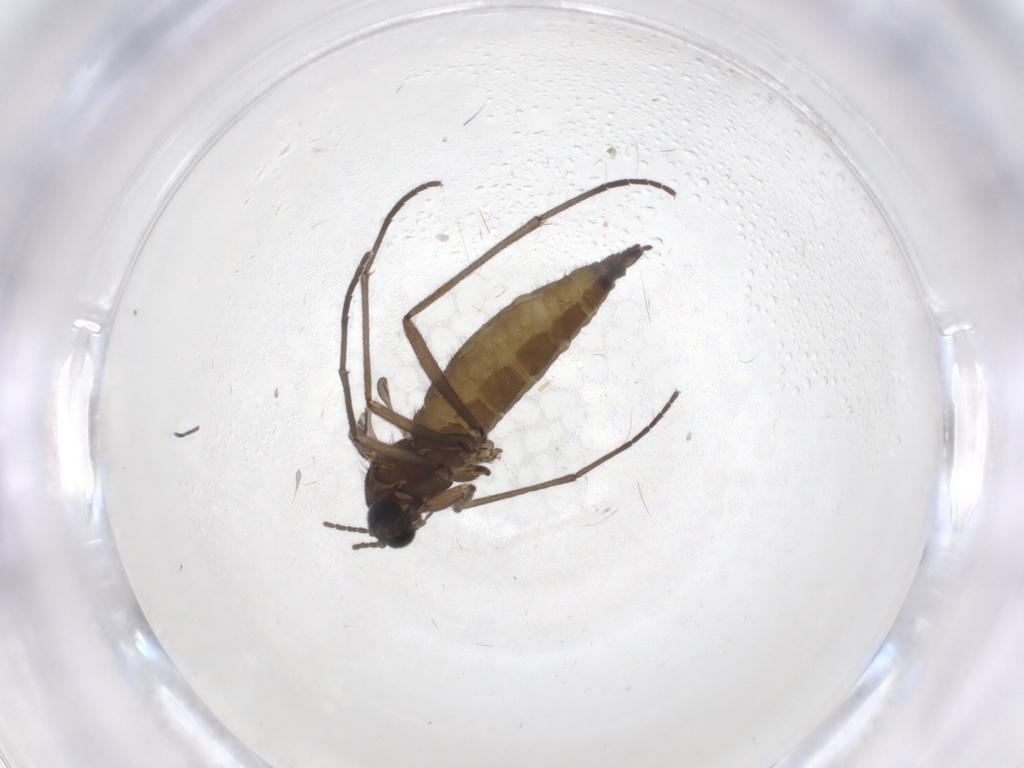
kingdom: Animalia
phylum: Arthropoda
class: Insecta
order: Diptera
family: Sciaridae
